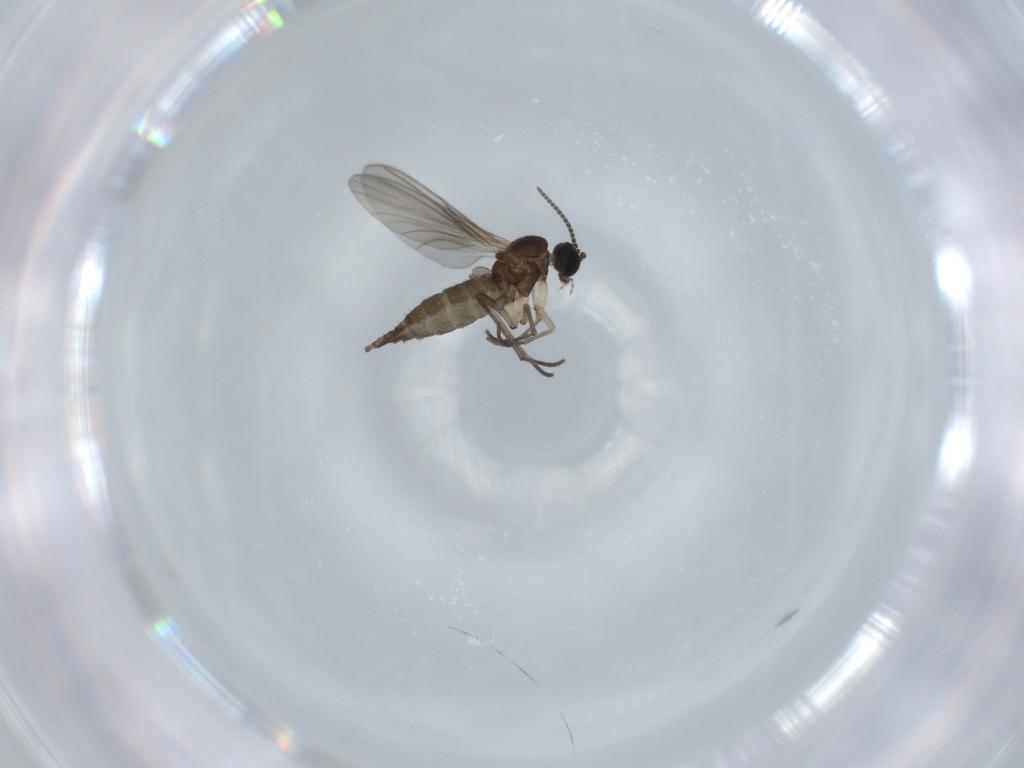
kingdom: Animalia
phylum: Arthropoda
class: Insecta
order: Diptera
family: Sciaridae
